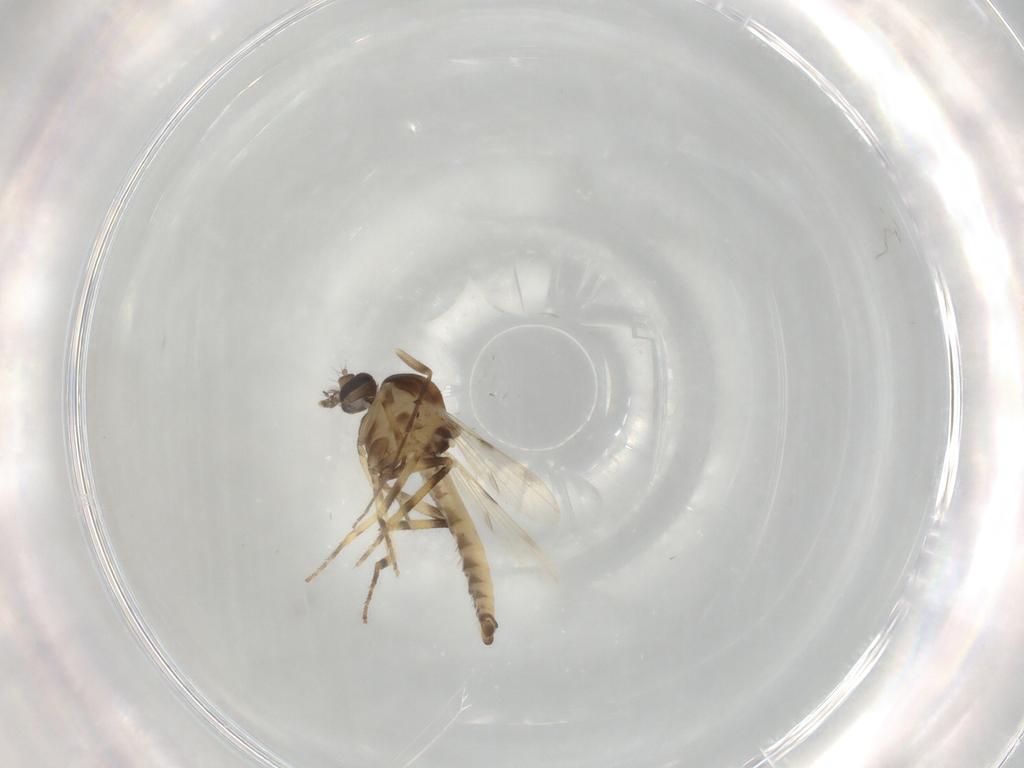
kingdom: Animalia
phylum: Arthropoda
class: Insecta
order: Diptera
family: Ceratopogonidae
